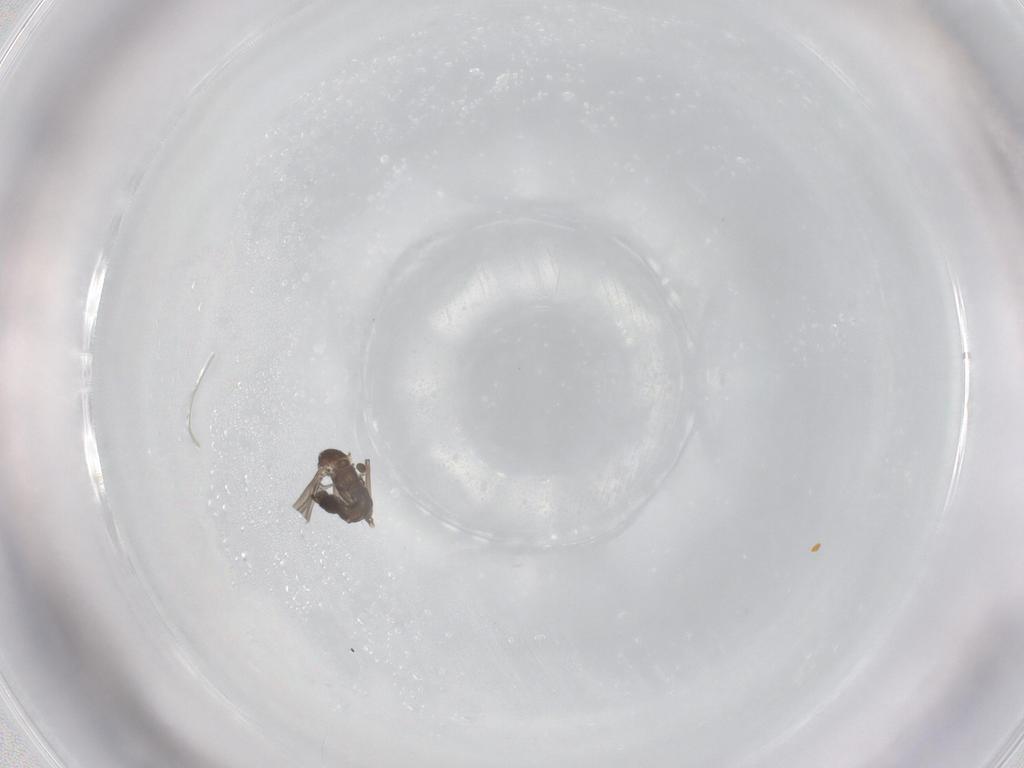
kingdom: Animalia
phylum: Arthropoda
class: Insecta
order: Diptera
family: Sciaridae
